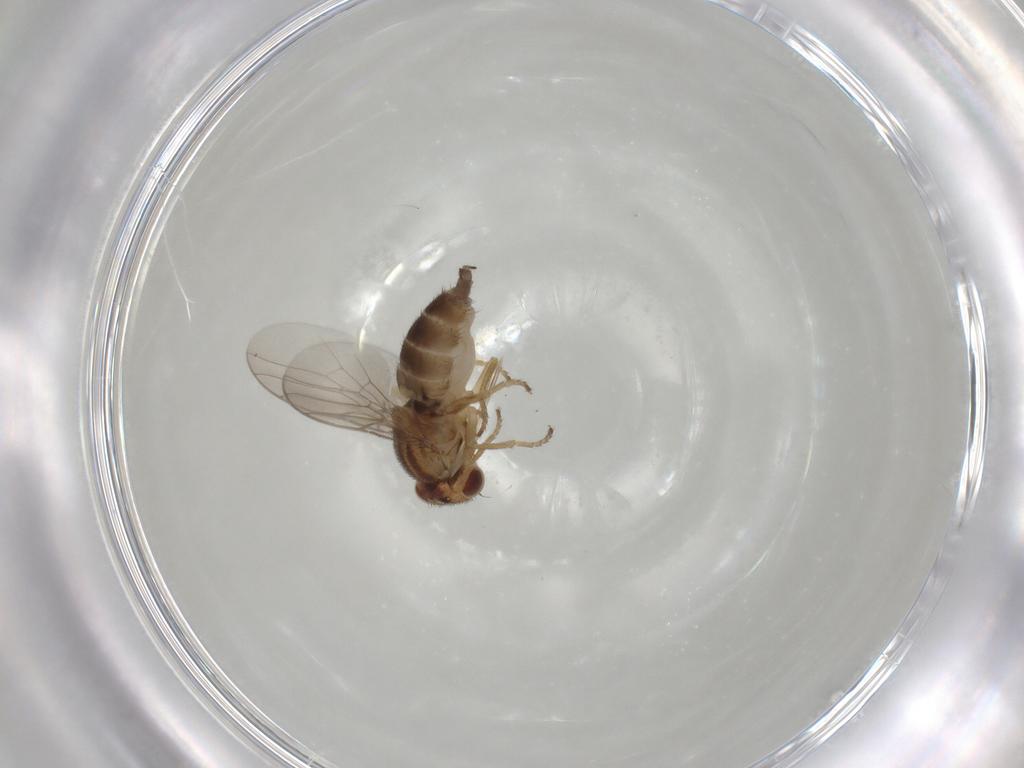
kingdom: Animalia
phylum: Arthropoda
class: Insecta
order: Diptera
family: Chloropidae
